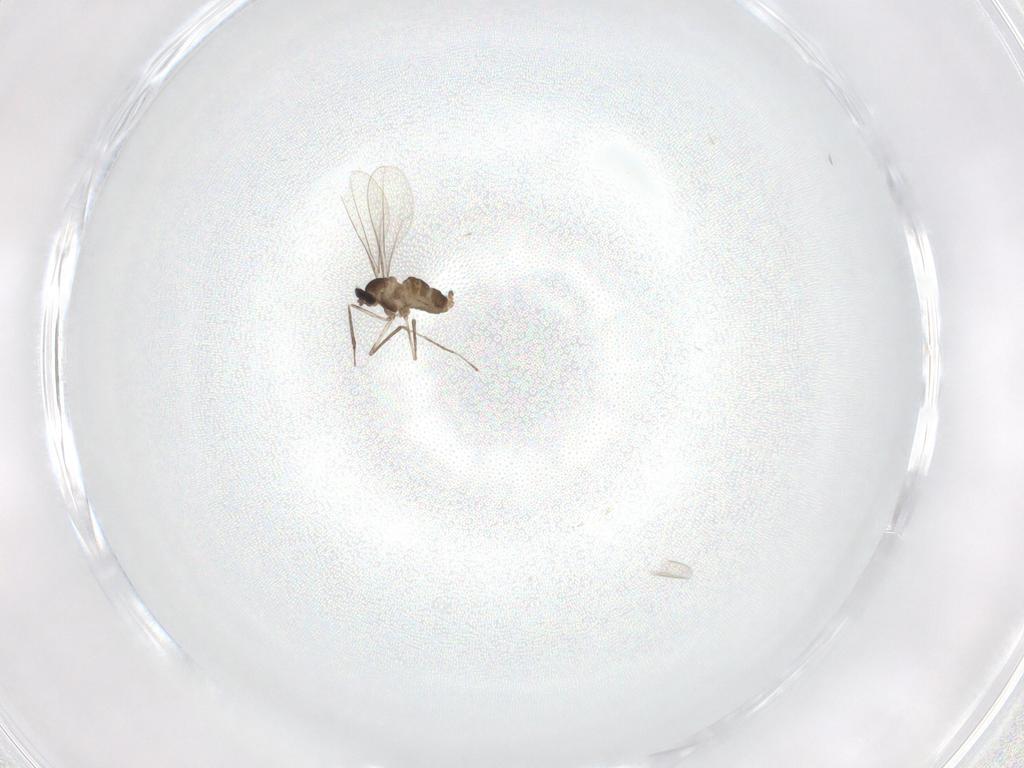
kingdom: Animalia
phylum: Arthropoda
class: Insecta
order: Diptera
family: Cecidomyiidae
